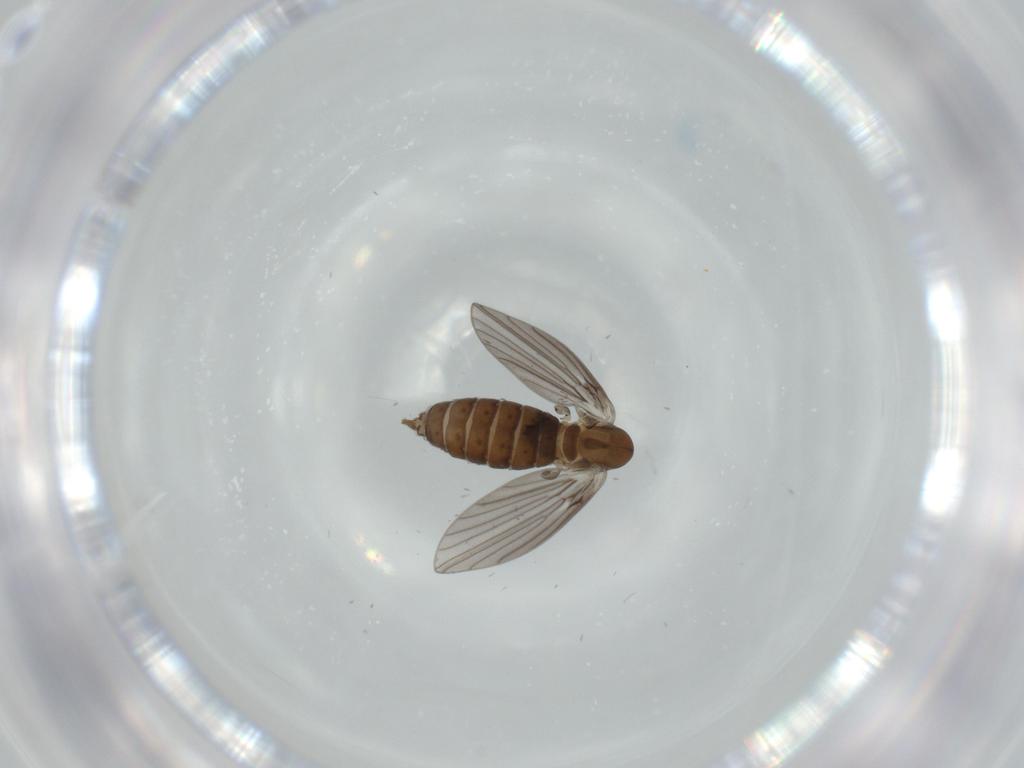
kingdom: Animalia
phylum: Arthropoda
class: Insecta
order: Diptera
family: Psychodidae
